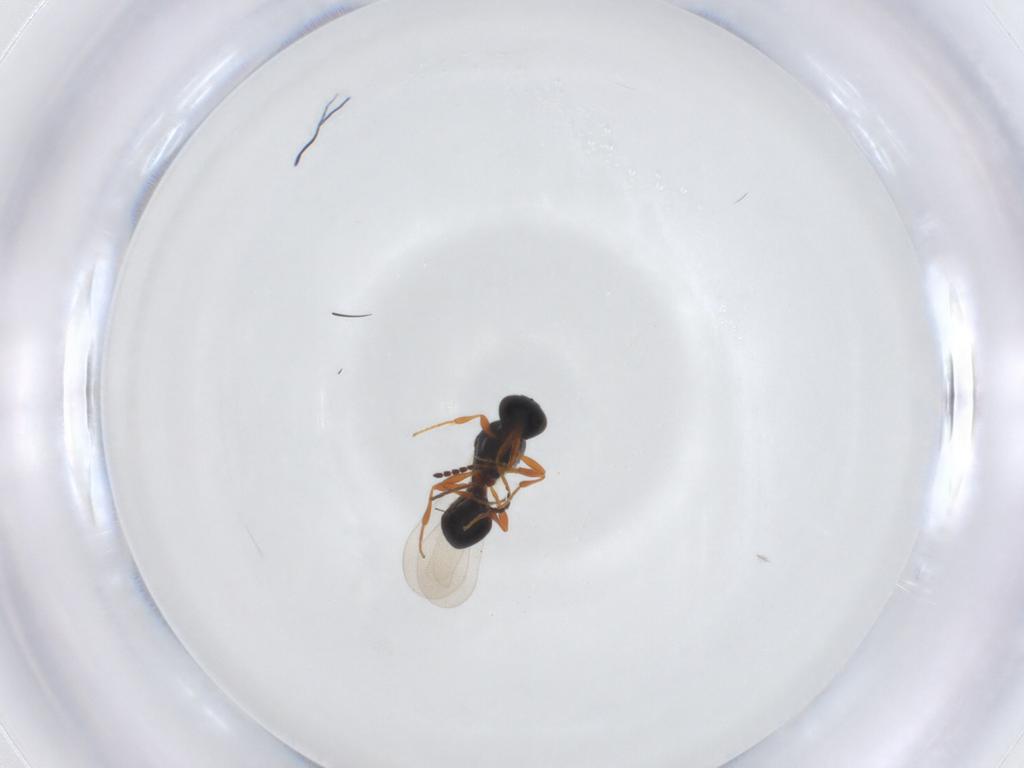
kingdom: Animalia
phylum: Arthropoda
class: Insecta
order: Hymenoptera
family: Platygastridae
